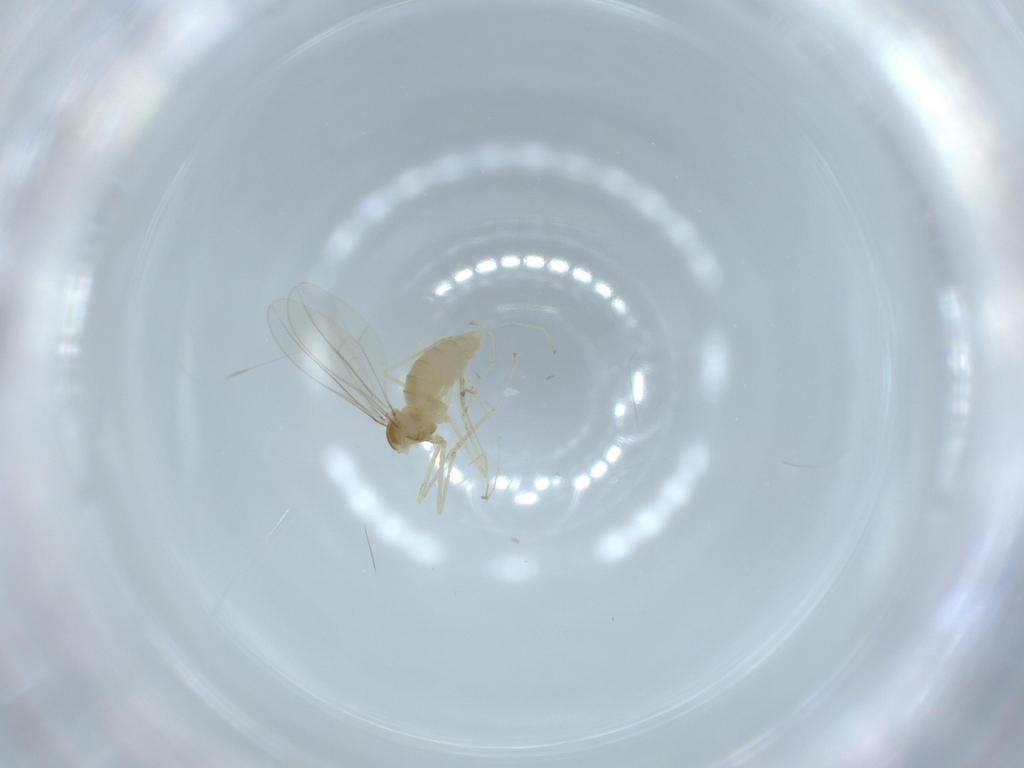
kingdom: Animalia
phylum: Arthropoda
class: Insecta
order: Diptera
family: Cecidomyiidae
